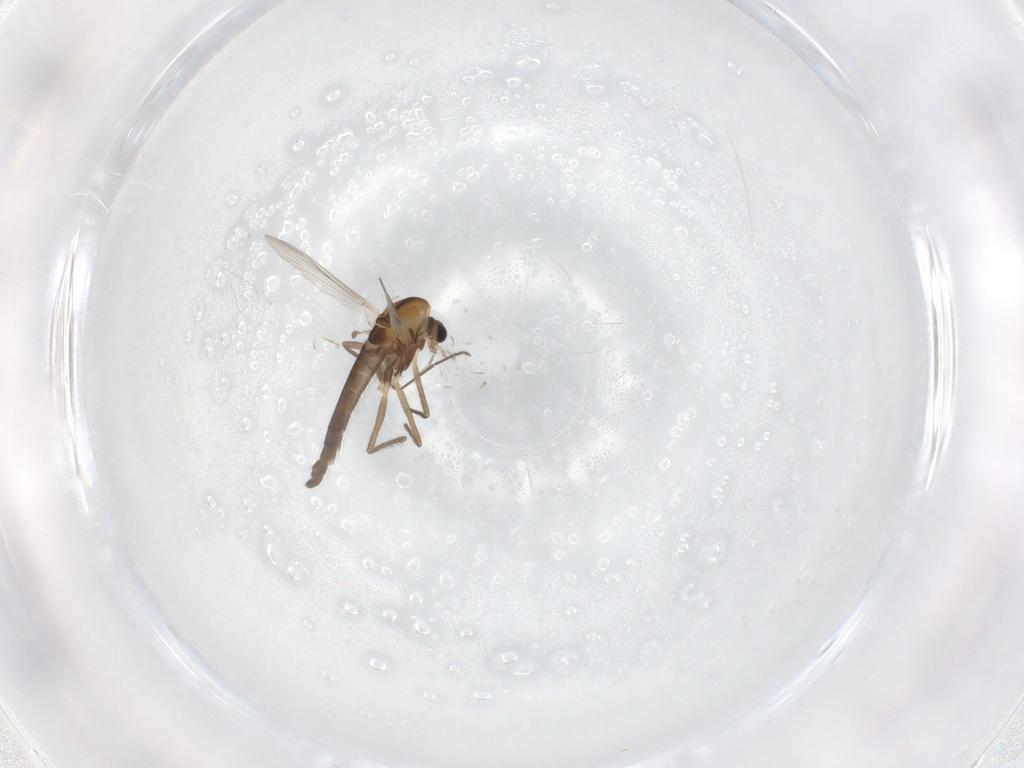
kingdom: Animalia
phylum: Arthropoda
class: Insecta
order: Diptera
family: Chironomidae
